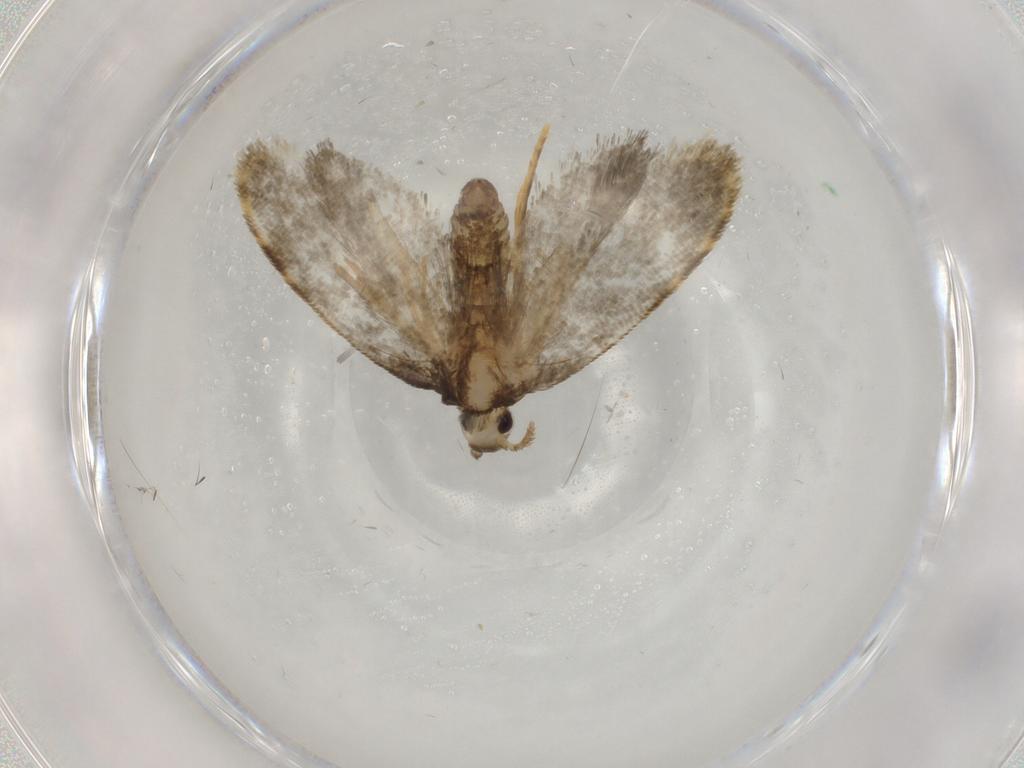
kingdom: Animalia
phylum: Arthropoda
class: Insecta
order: Lepidoptera
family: Psychidae
